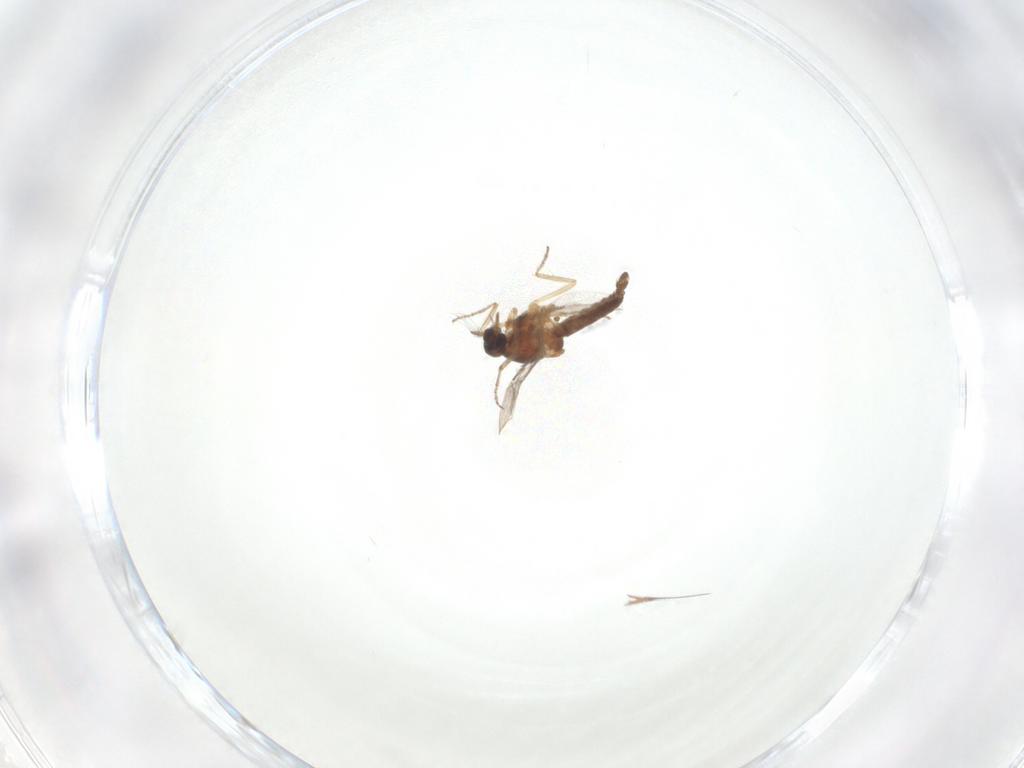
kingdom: Animalia
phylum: Arthropoda
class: Insecta
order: Diptera
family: Ceratopogonidae
